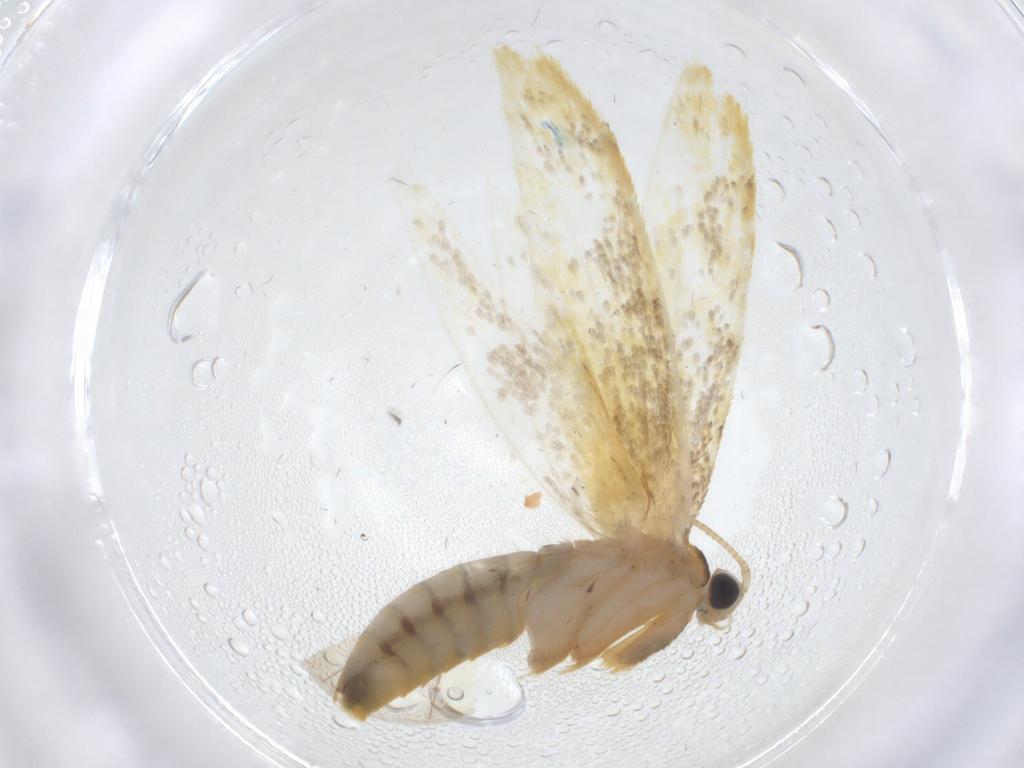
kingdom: Animalia
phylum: Arthropoda
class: Insecta
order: Lepidoptera
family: Tineidae
